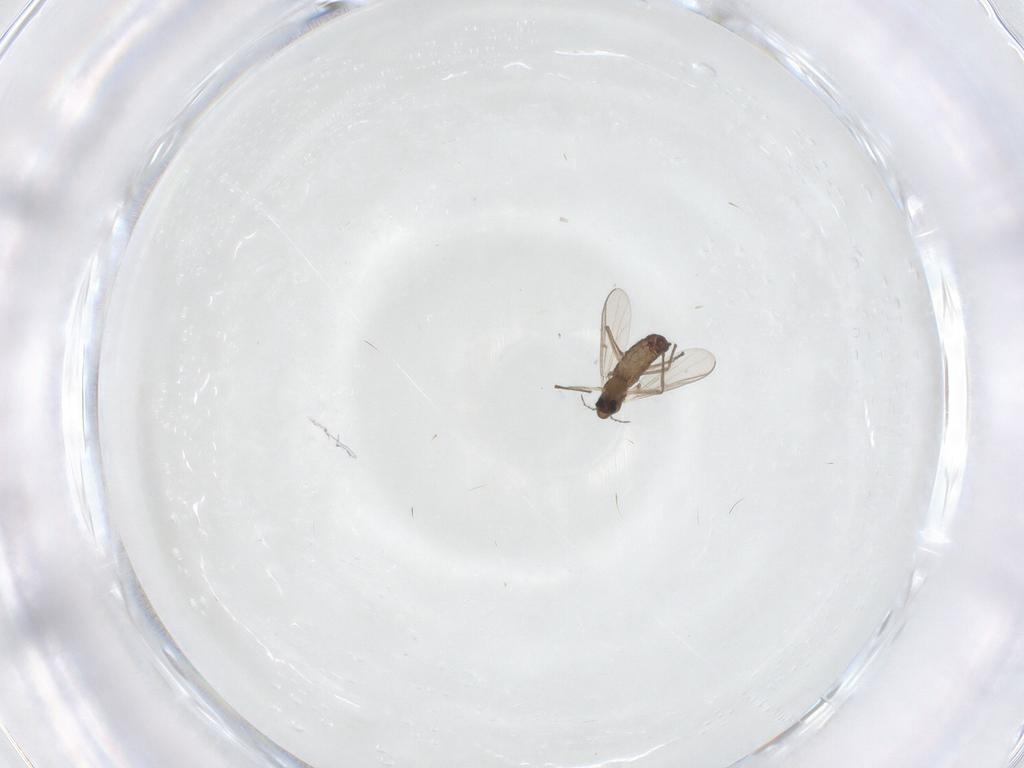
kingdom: Animalia
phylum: Arthropoda
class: Insecta
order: Diptera
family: Chironomidae
